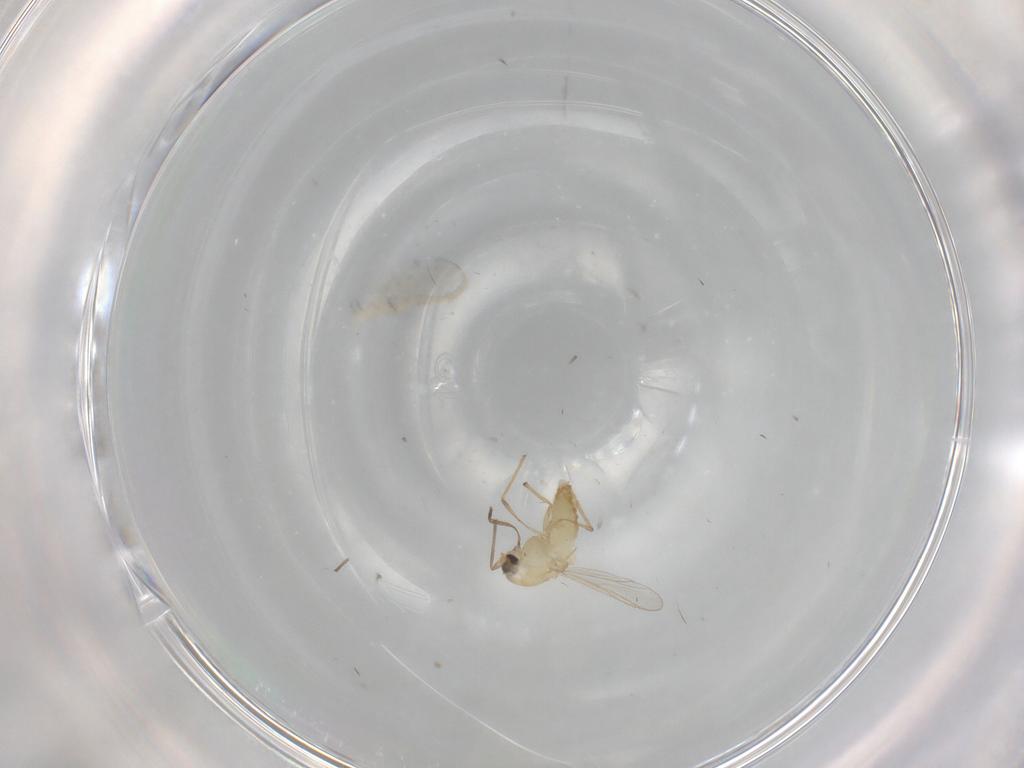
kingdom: Animalia
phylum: Arthropoda
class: Insecta
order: Diptera
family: Chironomidae
